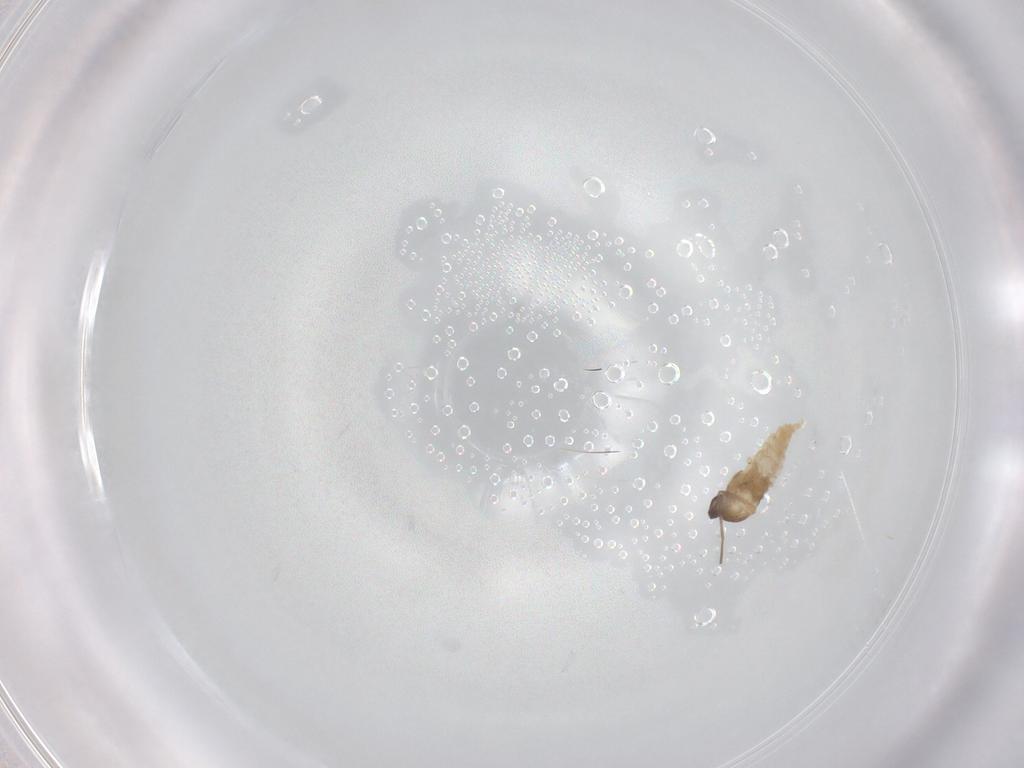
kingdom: Animalia
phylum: Arthropoda
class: Insecta
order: Diptera
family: Cecidomyiidae
